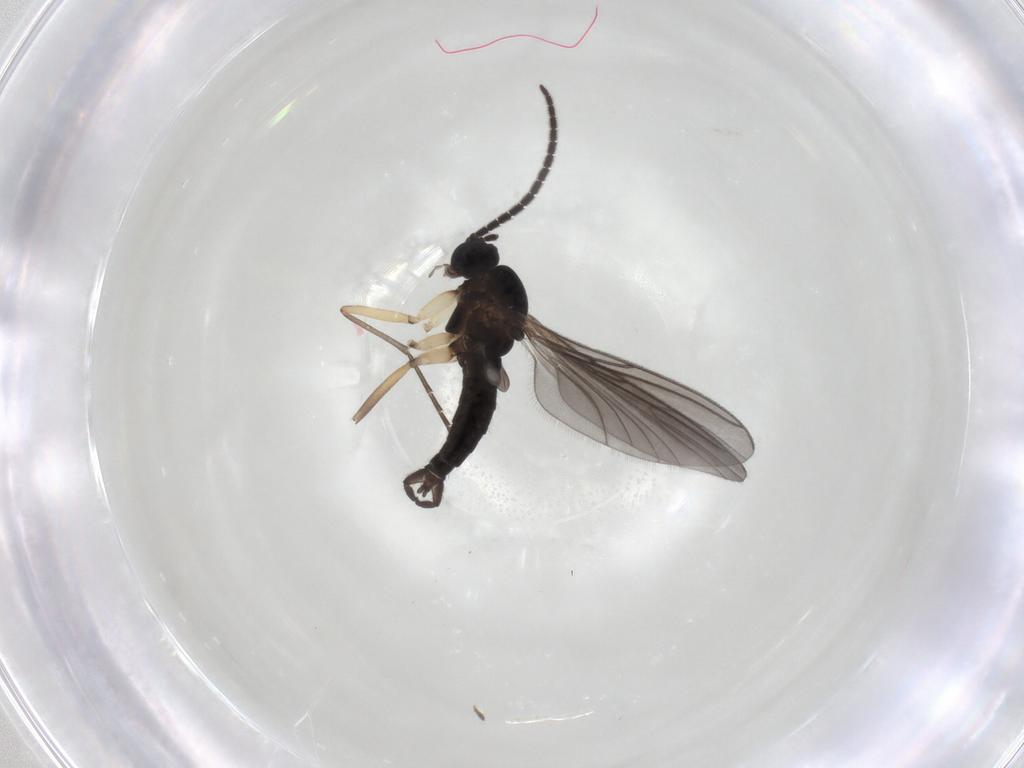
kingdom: Animalia
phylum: Arthropoda
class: Insecta
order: Diptera
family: Sciaridae
